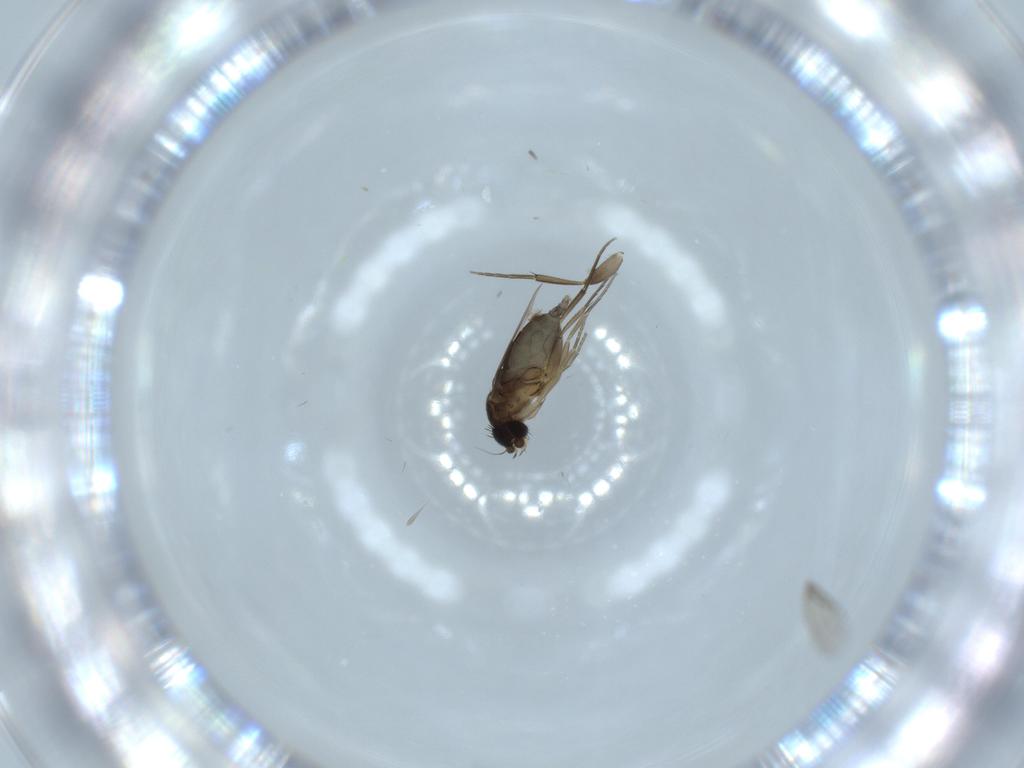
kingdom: Animalia
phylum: Arthropoda
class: Insecta
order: Diptera
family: Phoridae
